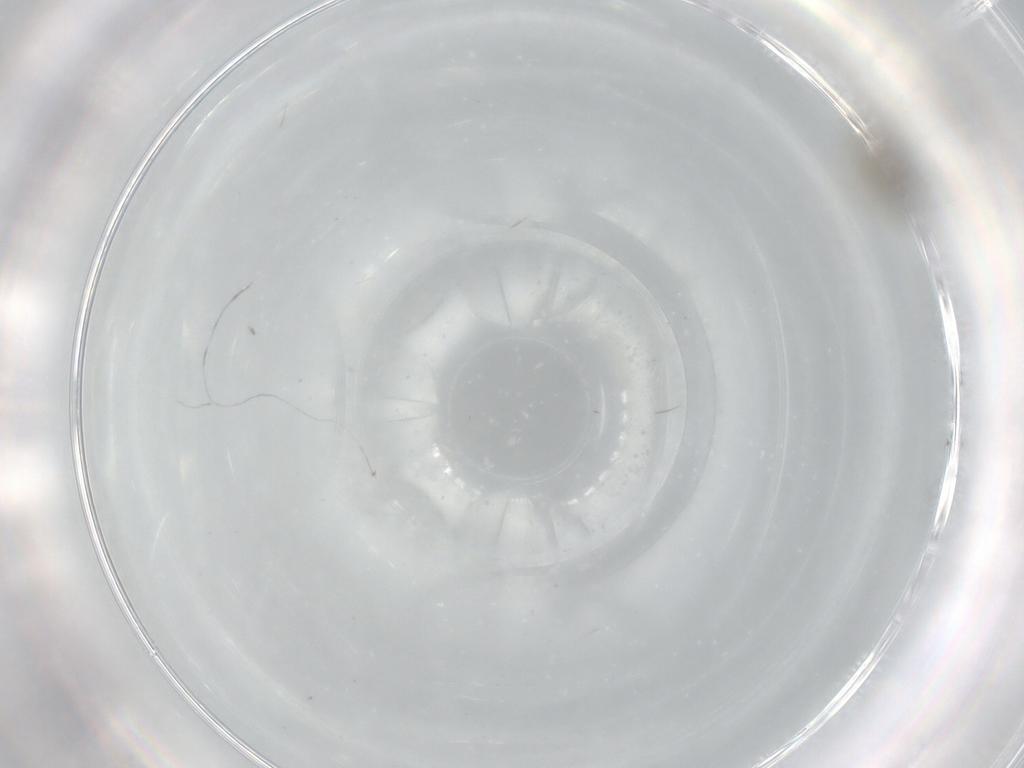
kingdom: Animalia
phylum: Arthropoda
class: Insecta
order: Diptera
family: Cecidomyiidae
